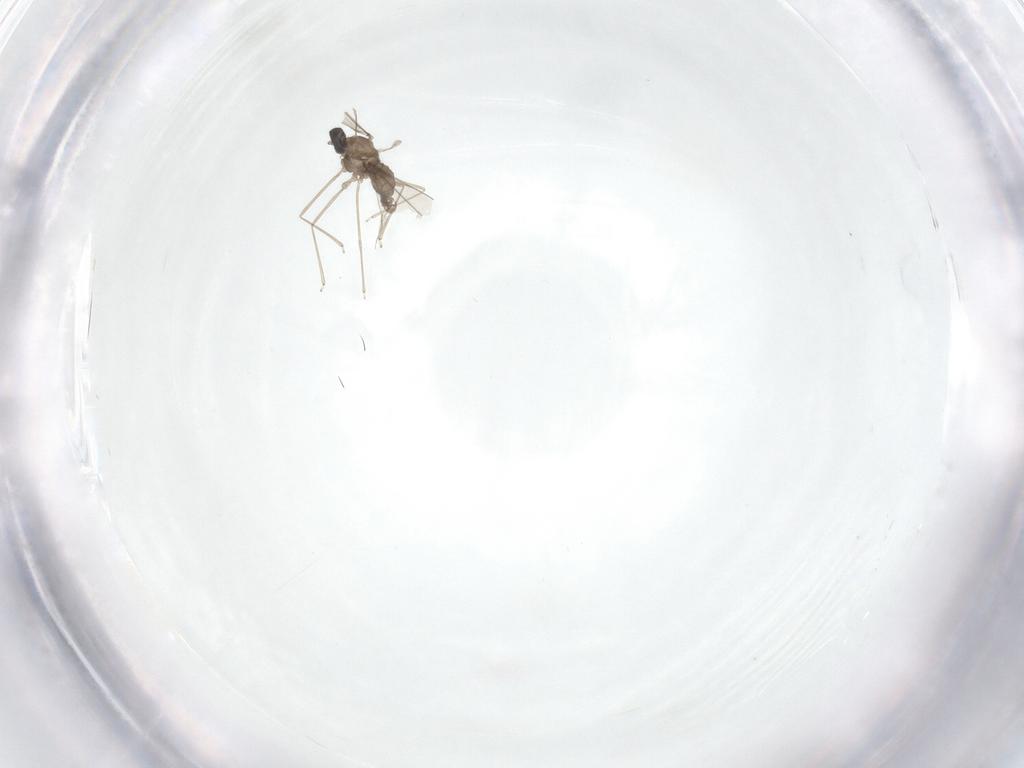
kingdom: Animalia
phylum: Arthropoda
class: Insecta
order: Diptera
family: Cecidomyiidae
